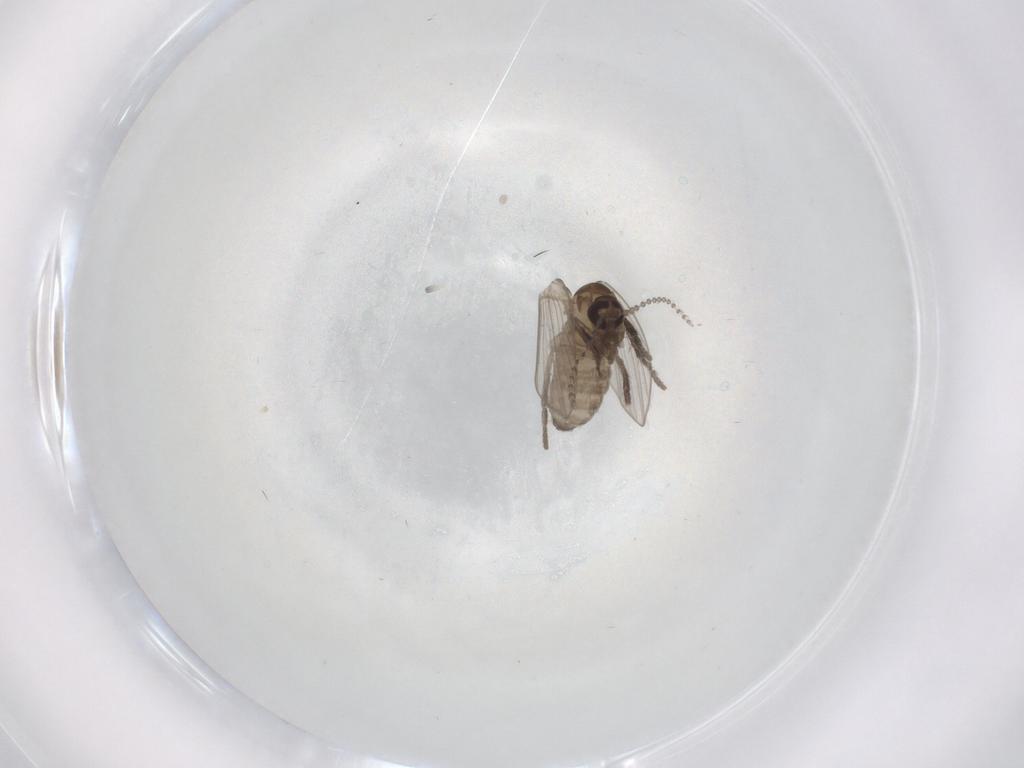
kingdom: Animalia
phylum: Arthropoda
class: Insecta
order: Diptera
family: Psychodidae
